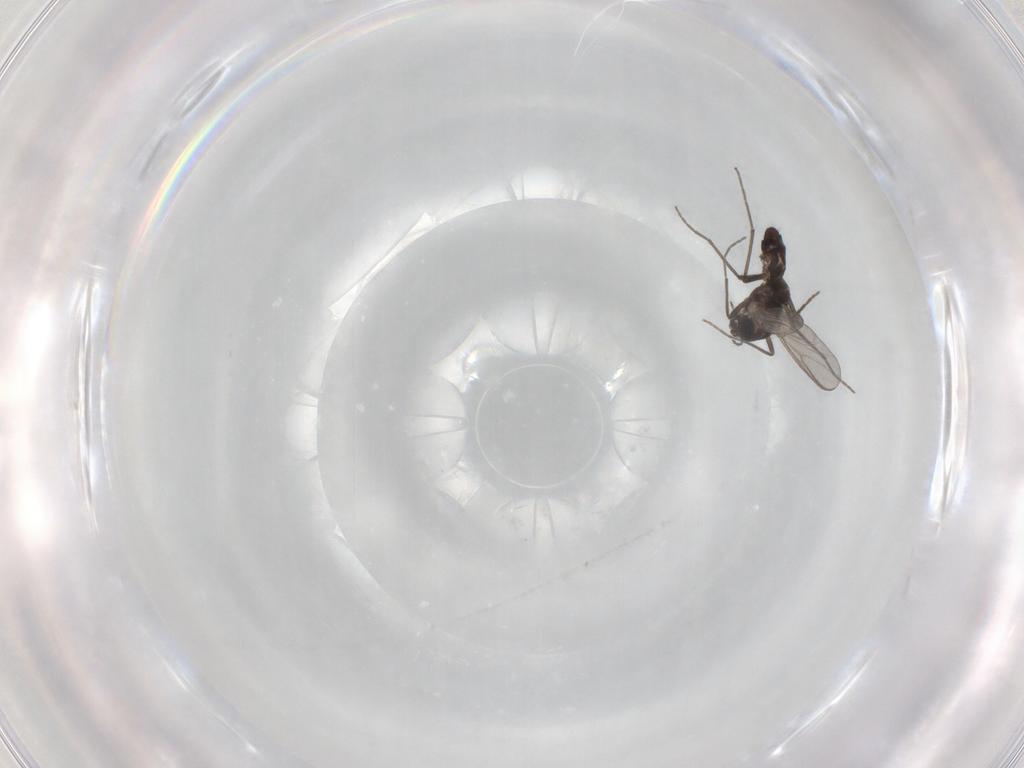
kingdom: Animalia
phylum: Arthropoda
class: Insecta
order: Diptera
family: Chironomidae
